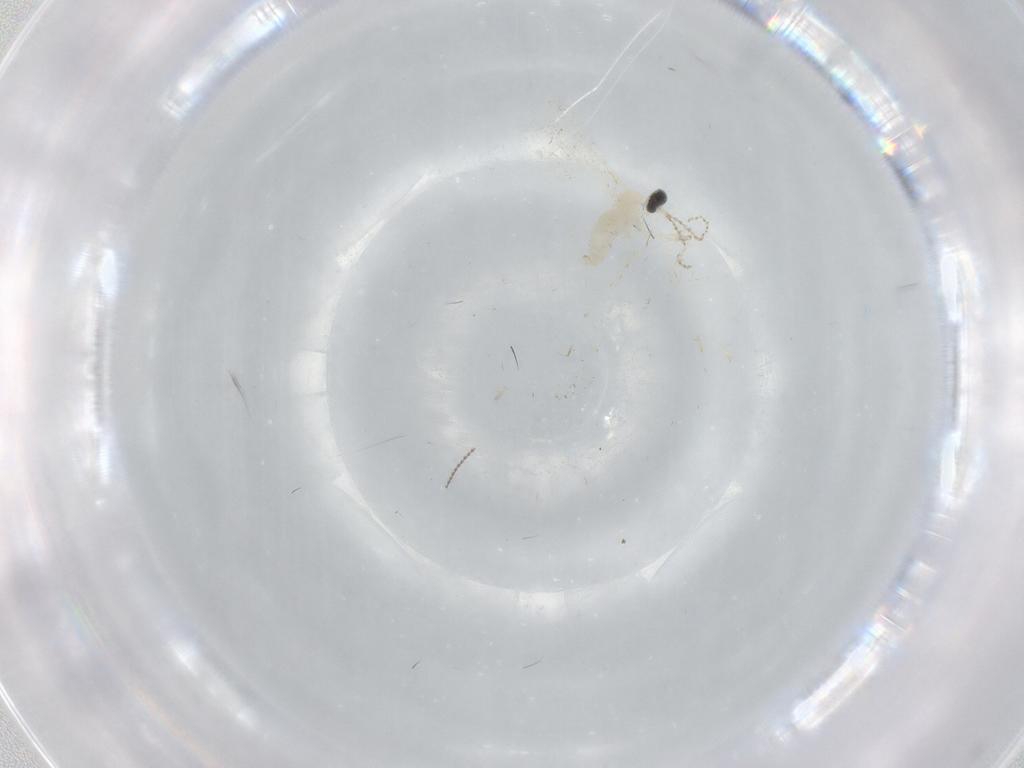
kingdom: Animalia
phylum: Arthropoda
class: Insecta
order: Diptera
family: Cecidomyiidae
